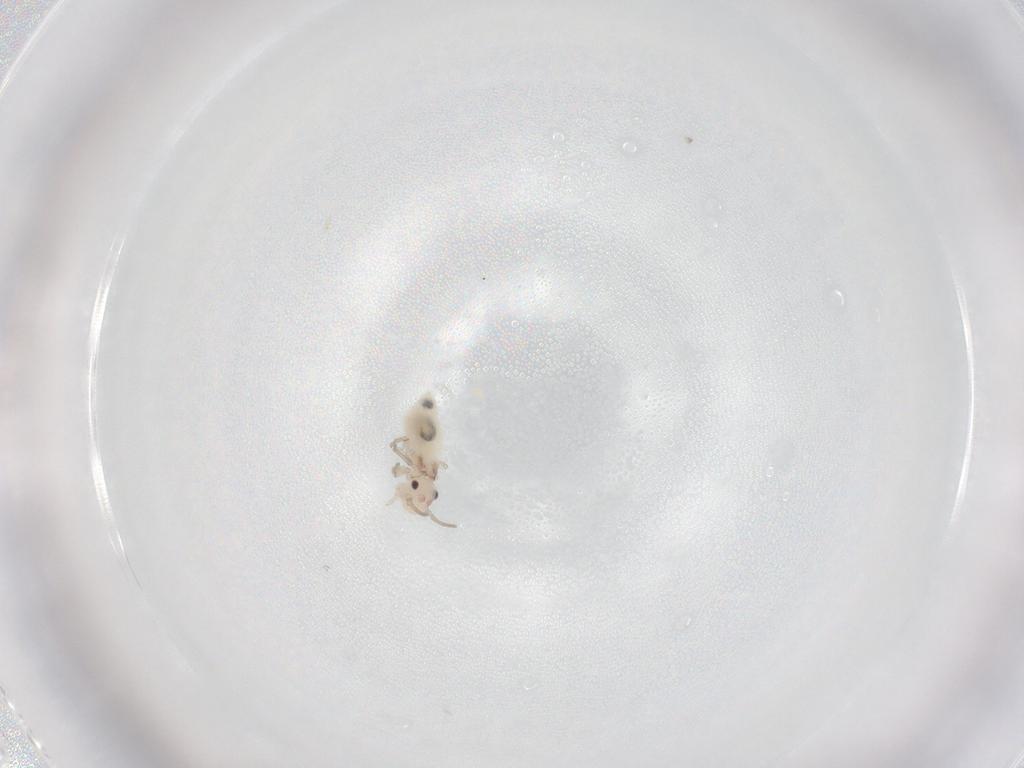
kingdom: Animalia
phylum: Arthropoda
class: Insecta
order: Psocodea
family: Caeciliusidae
